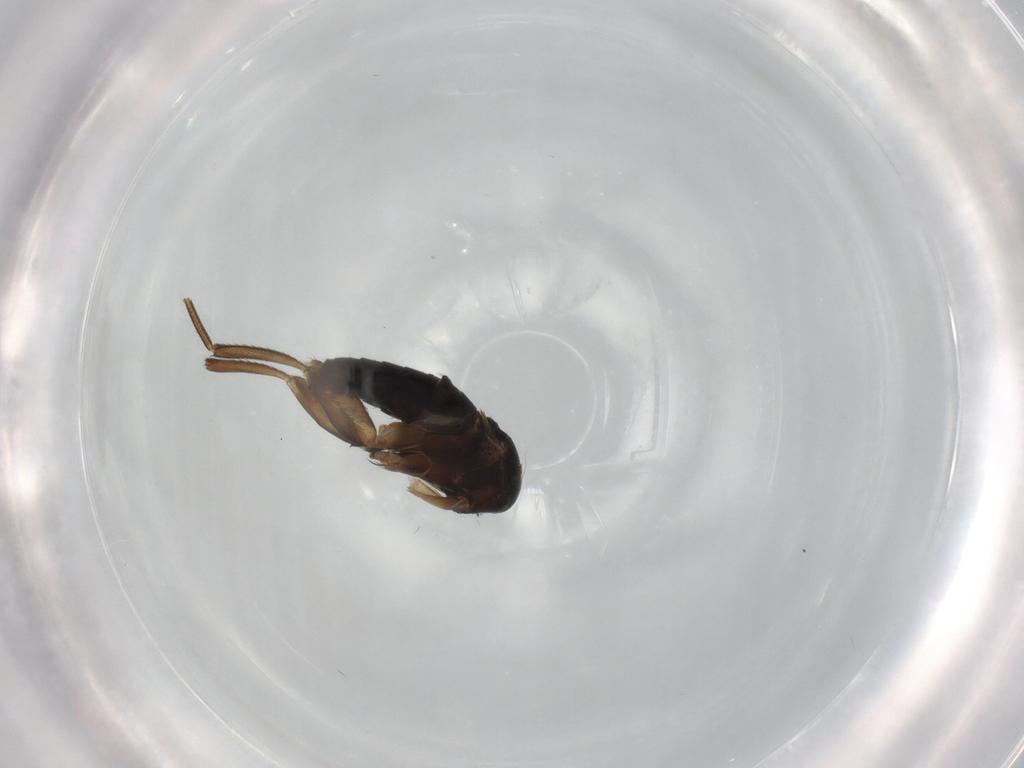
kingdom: Animalia
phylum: Arthropoda
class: Insecta
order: Diptera
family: Phoridae
